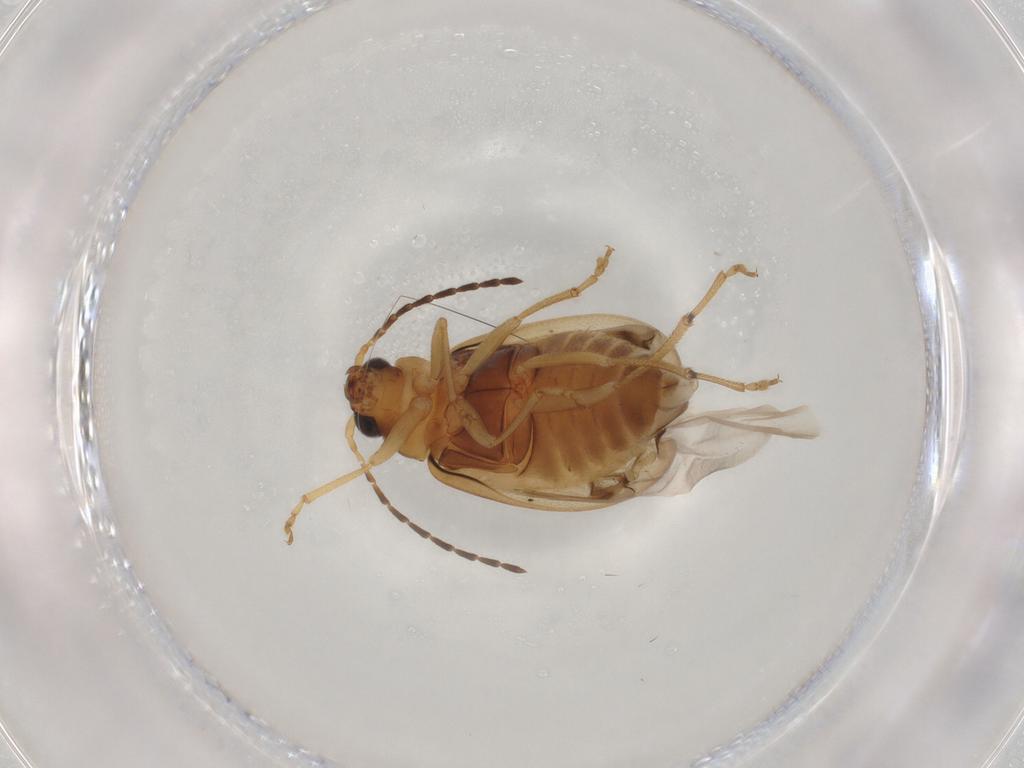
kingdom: Animalia
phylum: Arthropoda
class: Insecta
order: Coleoptera
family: Chrysomelidae
